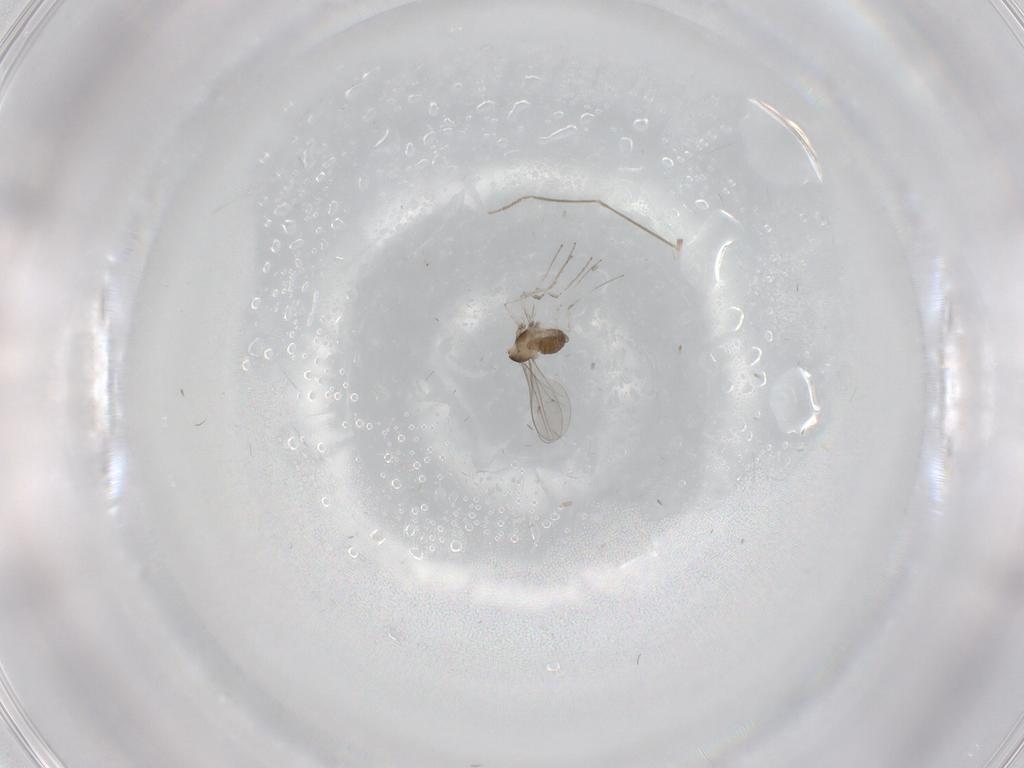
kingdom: Animalia
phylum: Arthropoda
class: Insecta
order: Diptera
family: Cecidomyiidae
